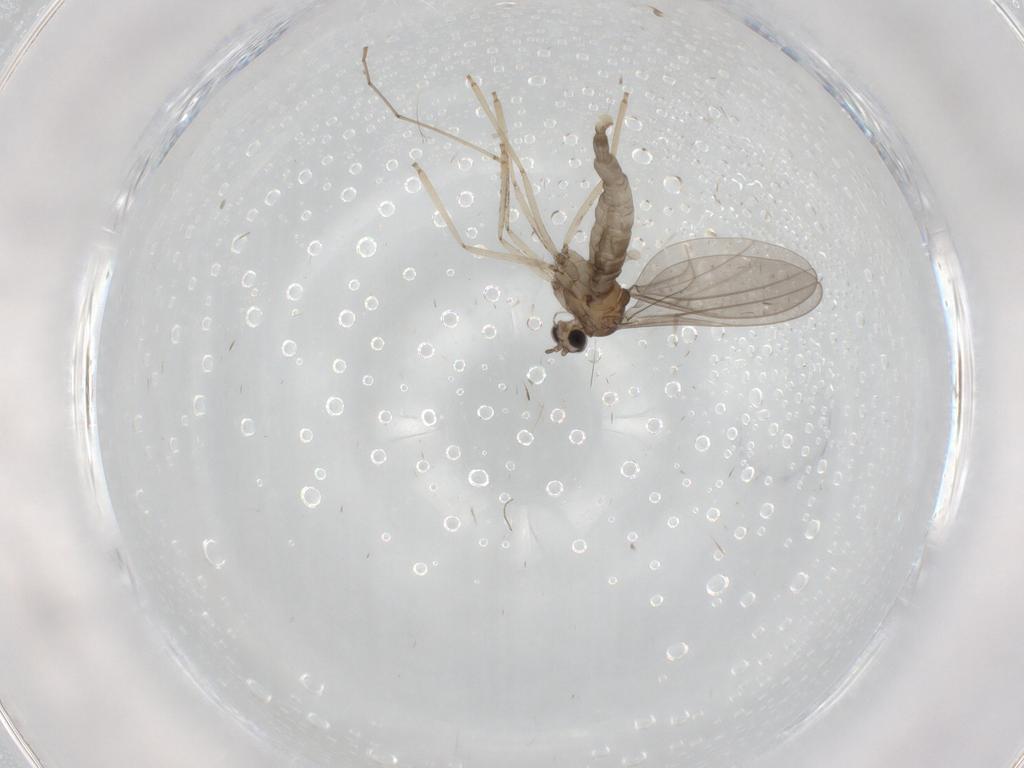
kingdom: Animalia
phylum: Arthropoda
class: Insecta
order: Diptera
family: Cecidomyiidae
